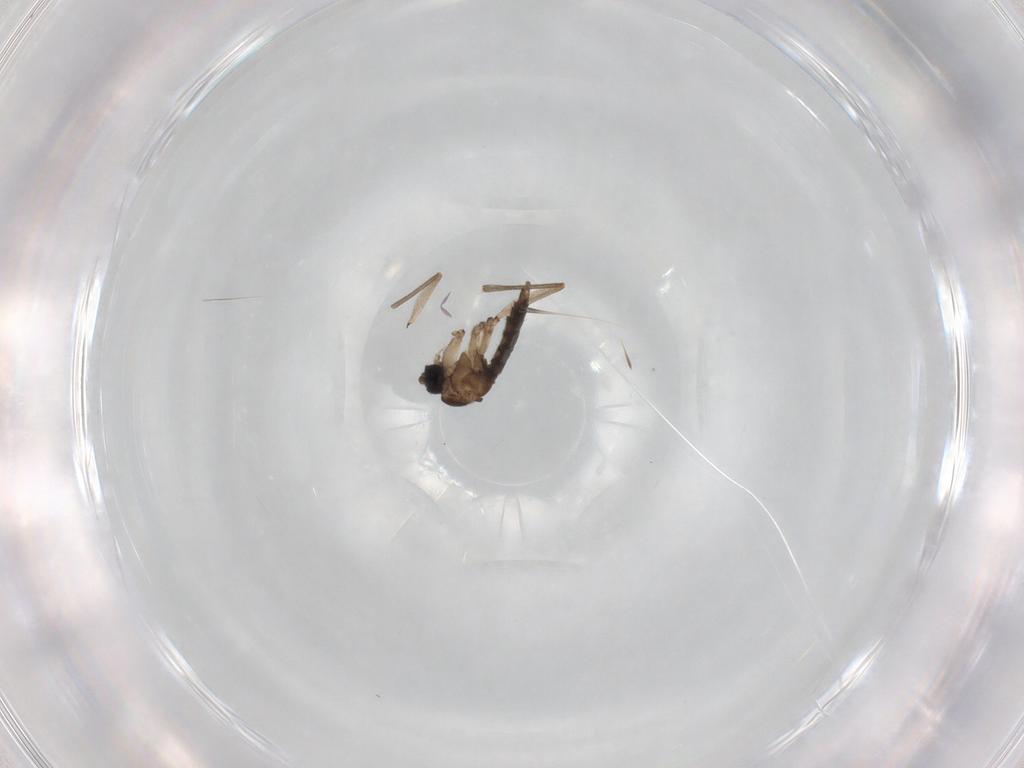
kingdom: Animalia
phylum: Arthropoda
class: Insecta
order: Diptera
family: Sciaridae
